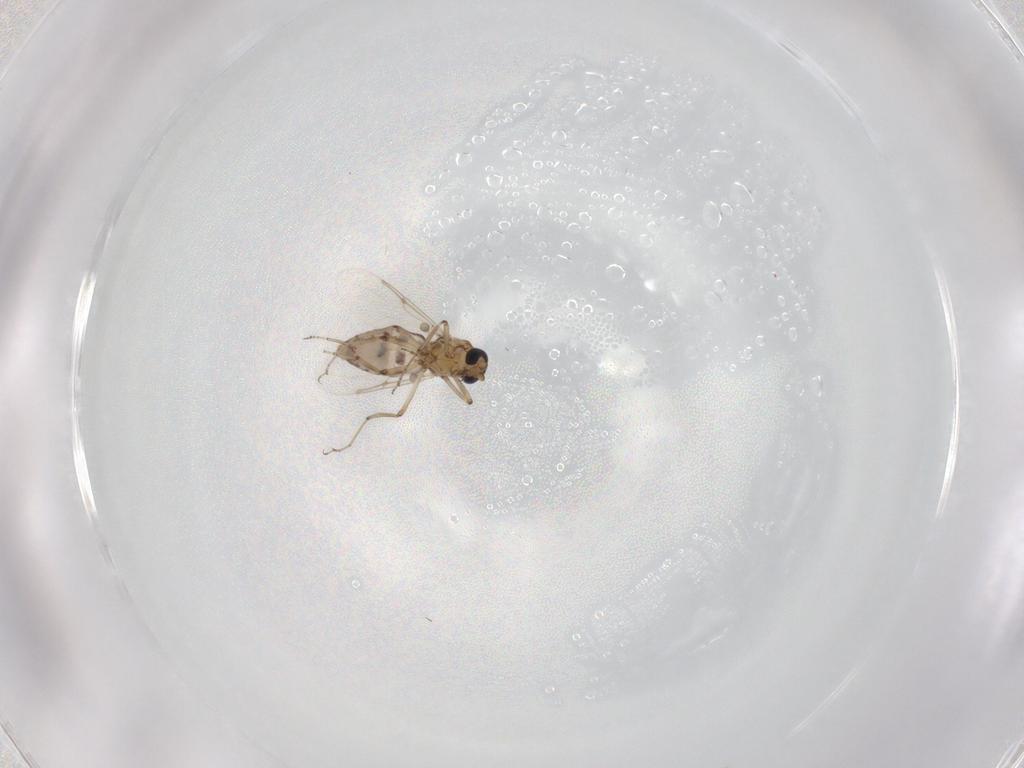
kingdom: Animalia
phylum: Arthropoda
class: Insecta
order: Diptera
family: Ceratopogonidae
